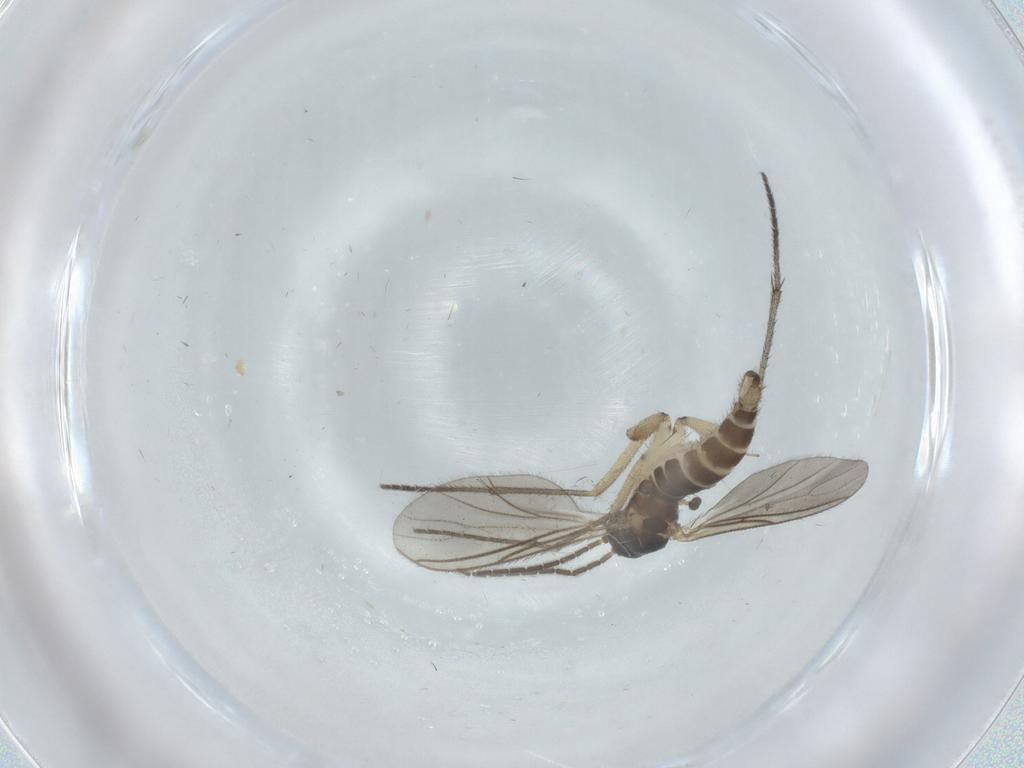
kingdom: Animalia
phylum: Arthropoda
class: Insecta
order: Diptera
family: Sciaridae
